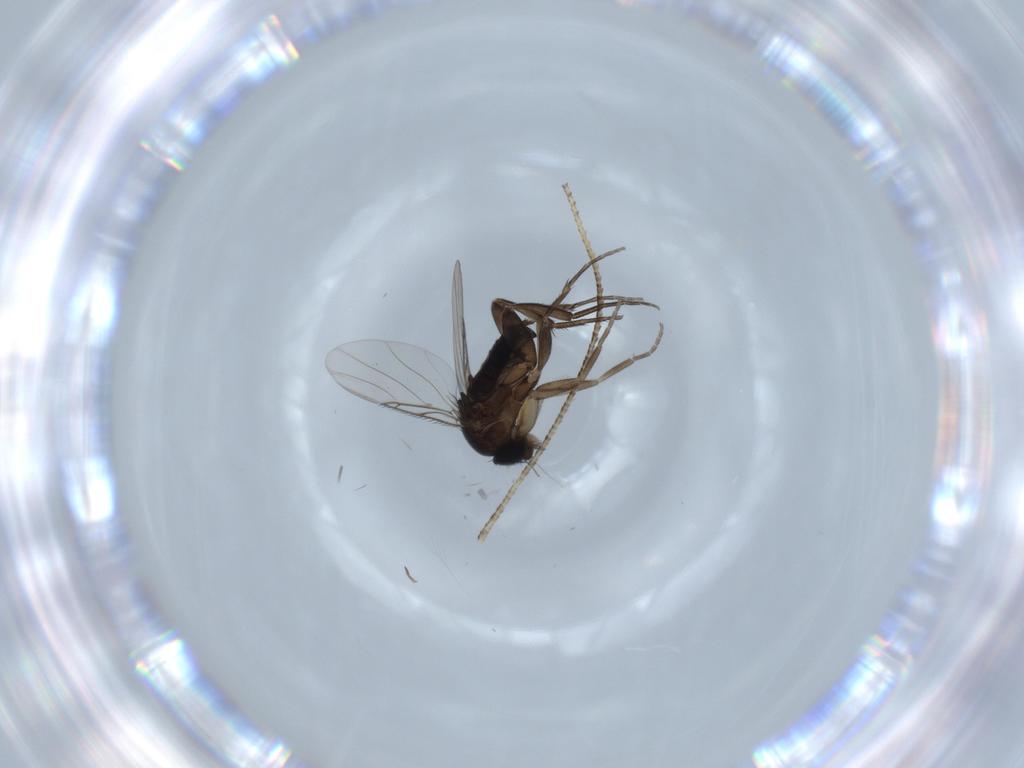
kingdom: Animalia
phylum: Arthropoda
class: Insecta
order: Diptera
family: Phoridae
